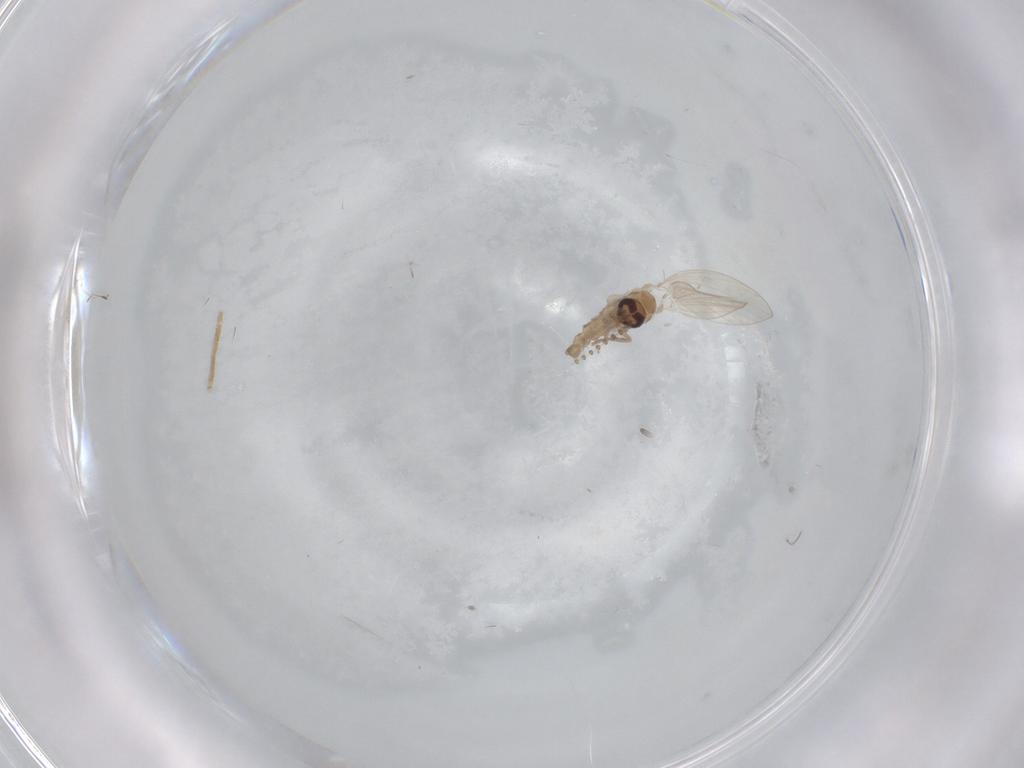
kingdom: Animalia
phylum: Arthropoda
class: Insecta
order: Diptera
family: Psychodidae
